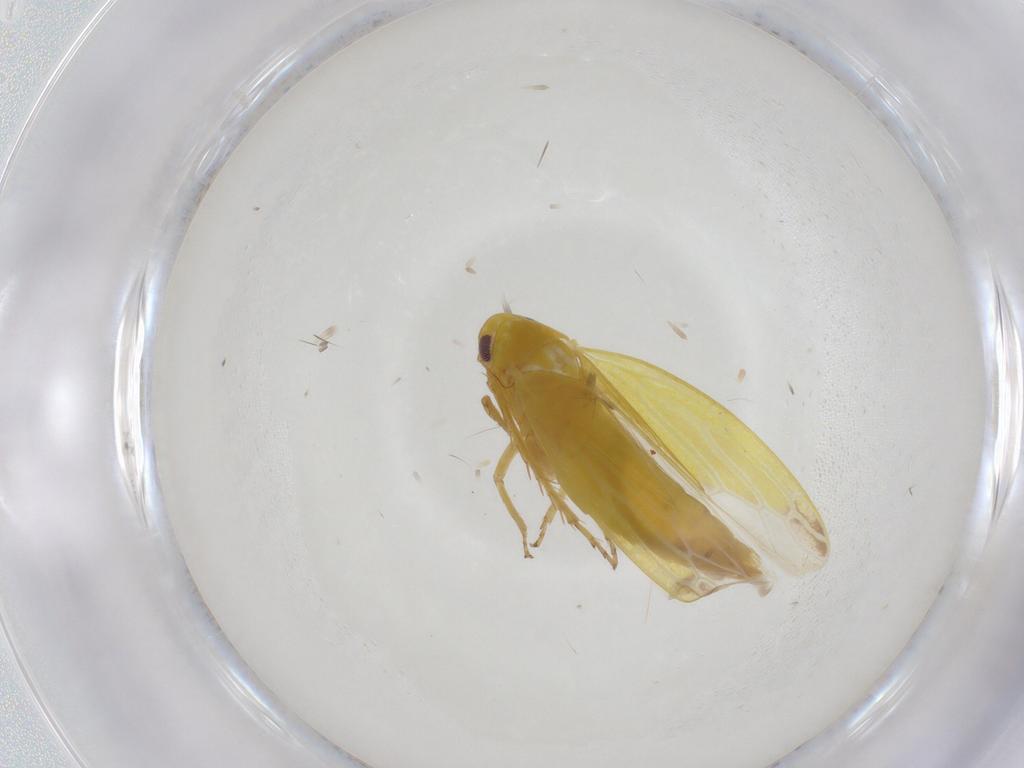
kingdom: Animalia
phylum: Arthropoda
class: Insecta
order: Hemiptera
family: Cicadellidae
